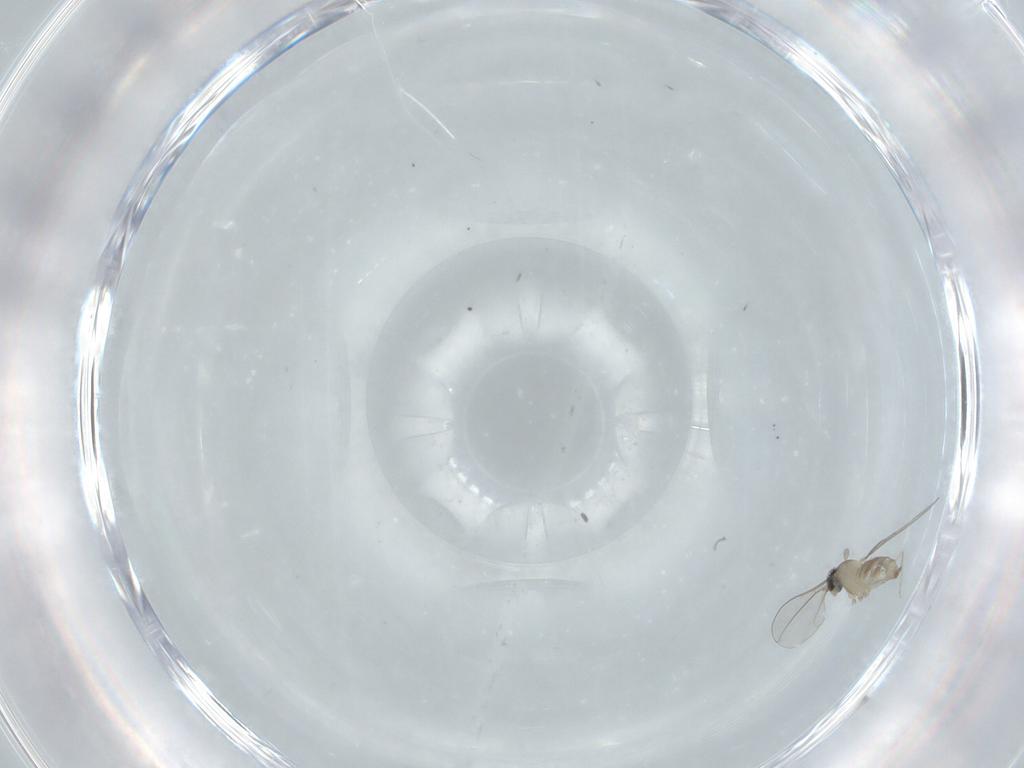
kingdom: Animalia
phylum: Arthropoda
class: Insecta
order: Diptera
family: Cecidomyiidae
